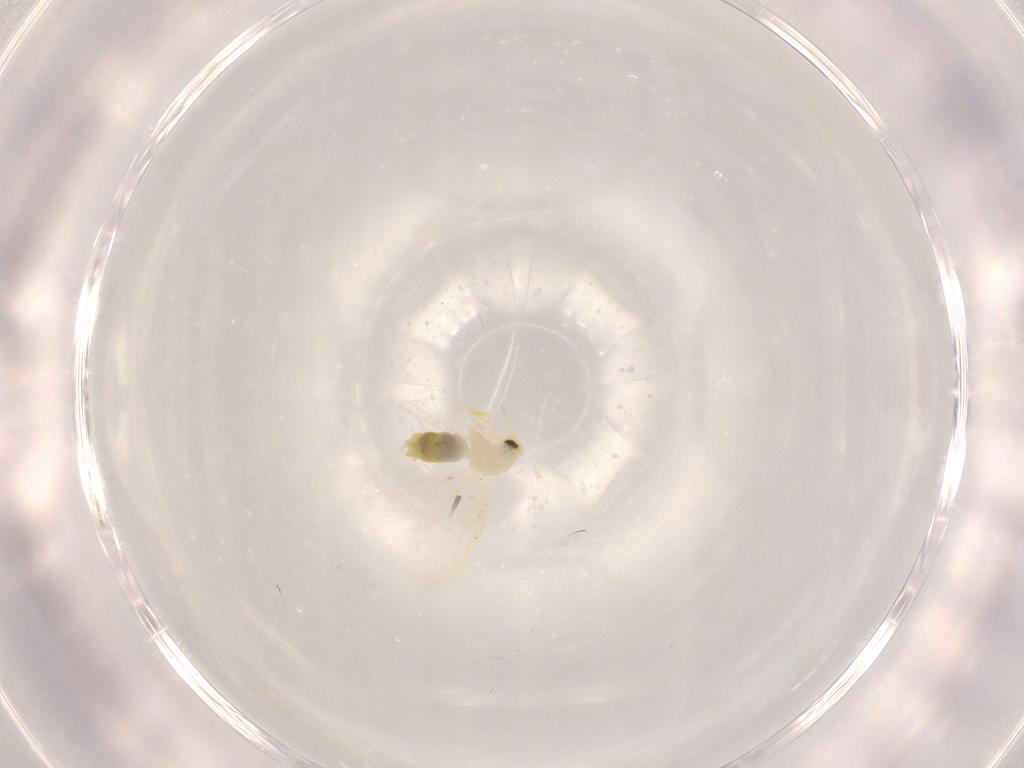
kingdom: Animalia
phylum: Arthropoda
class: Insecta
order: Hemiptera
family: Aleyrodidae
